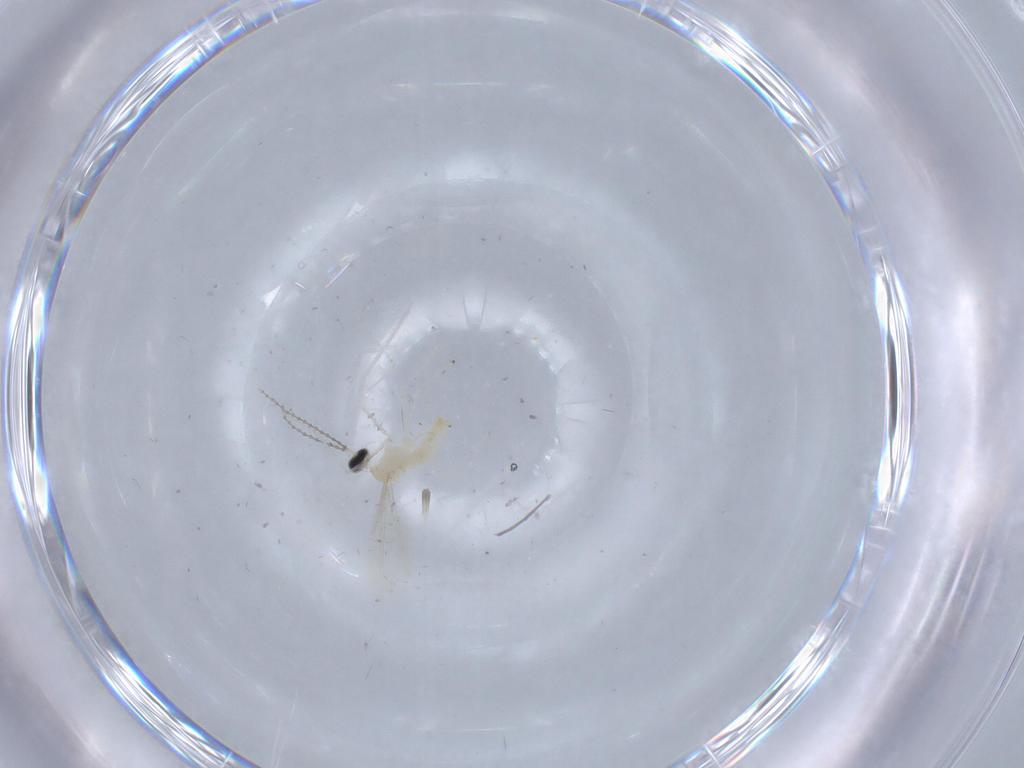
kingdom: Animalia
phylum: Arthropoda
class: Insecta
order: Diptera
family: Cecidomyiidae
